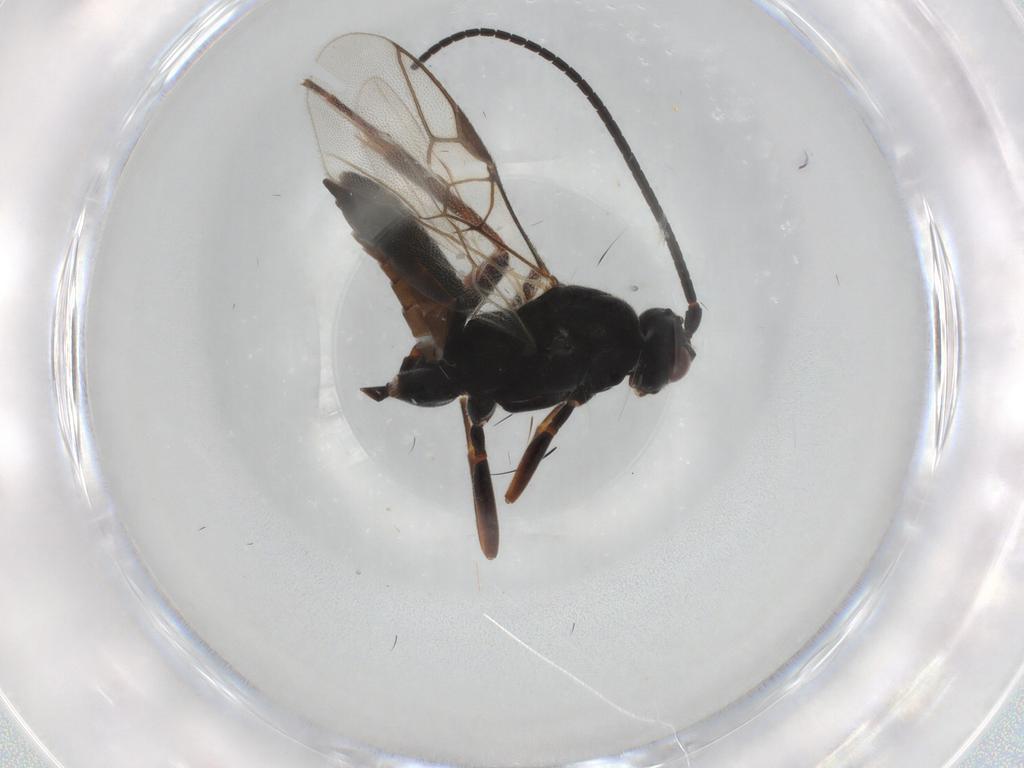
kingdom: Animalia
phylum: Arthropoda
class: Insecta
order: Hymenoptera
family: Braconidae
